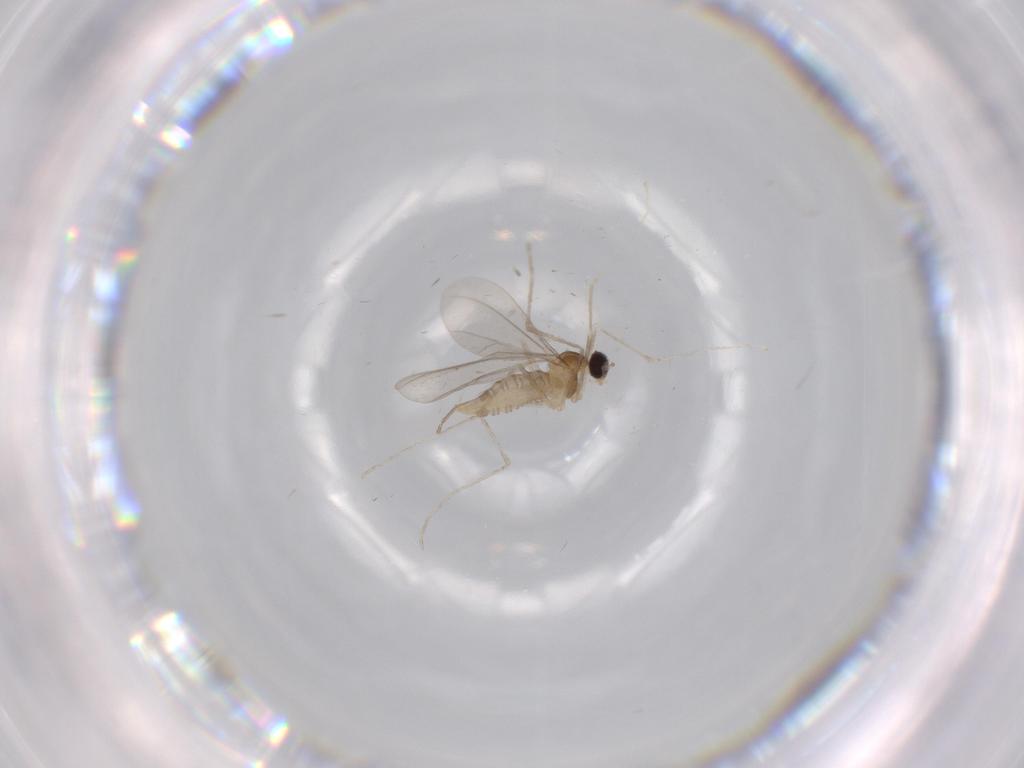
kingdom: Animalia
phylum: Arthropoda
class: Insecta
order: Diptera
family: Cecidomyiidae
